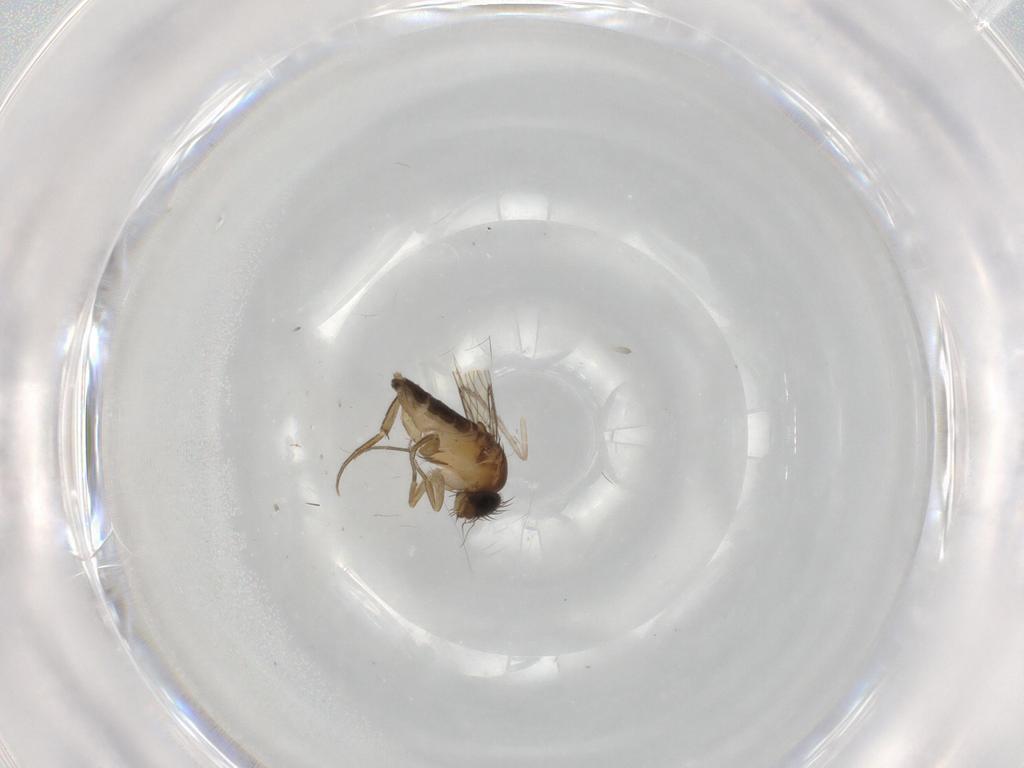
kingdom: Animalia
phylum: Arthropoda
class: Insecta
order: Diptera
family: Phoridae
